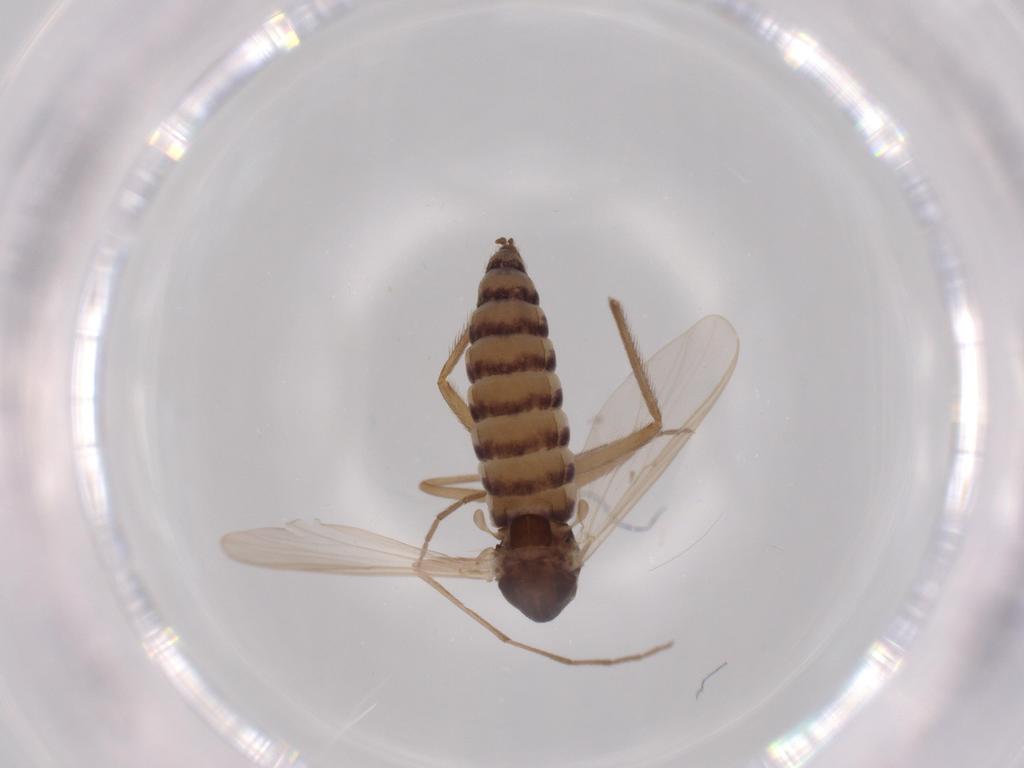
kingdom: Animalia
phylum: Arthropoda
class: Insecta
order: Diptera
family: Chironomidae
